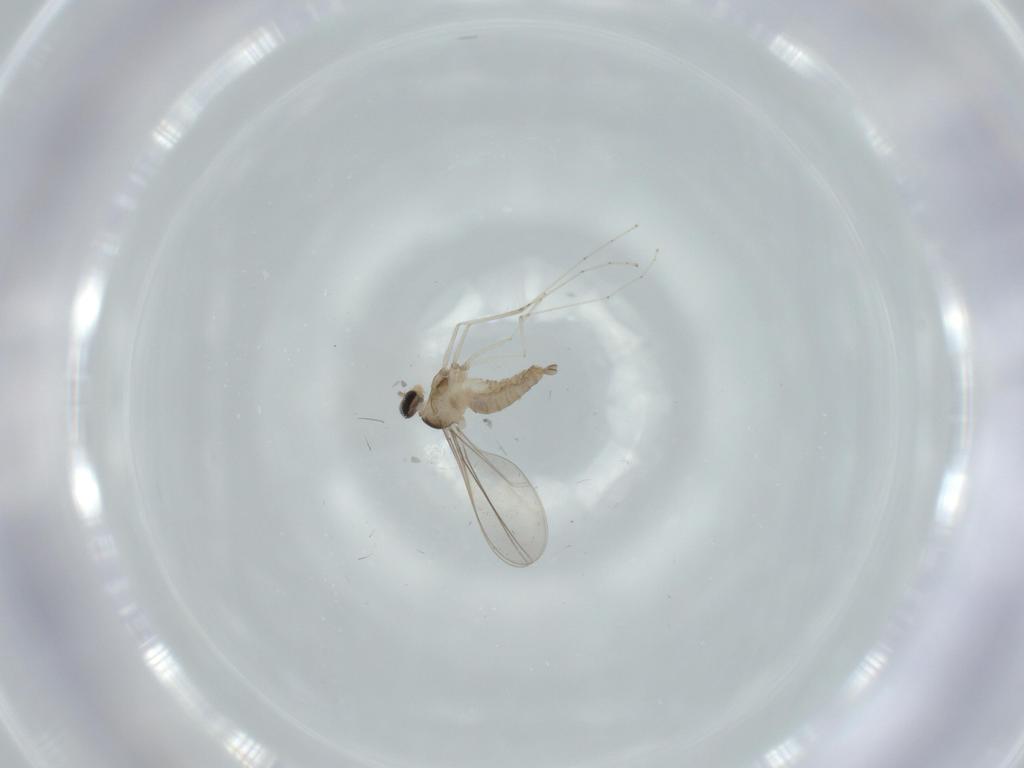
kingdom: Animalia
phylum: Arthropoda
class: Insecta
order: Diptera
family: Cecidomyiidae
